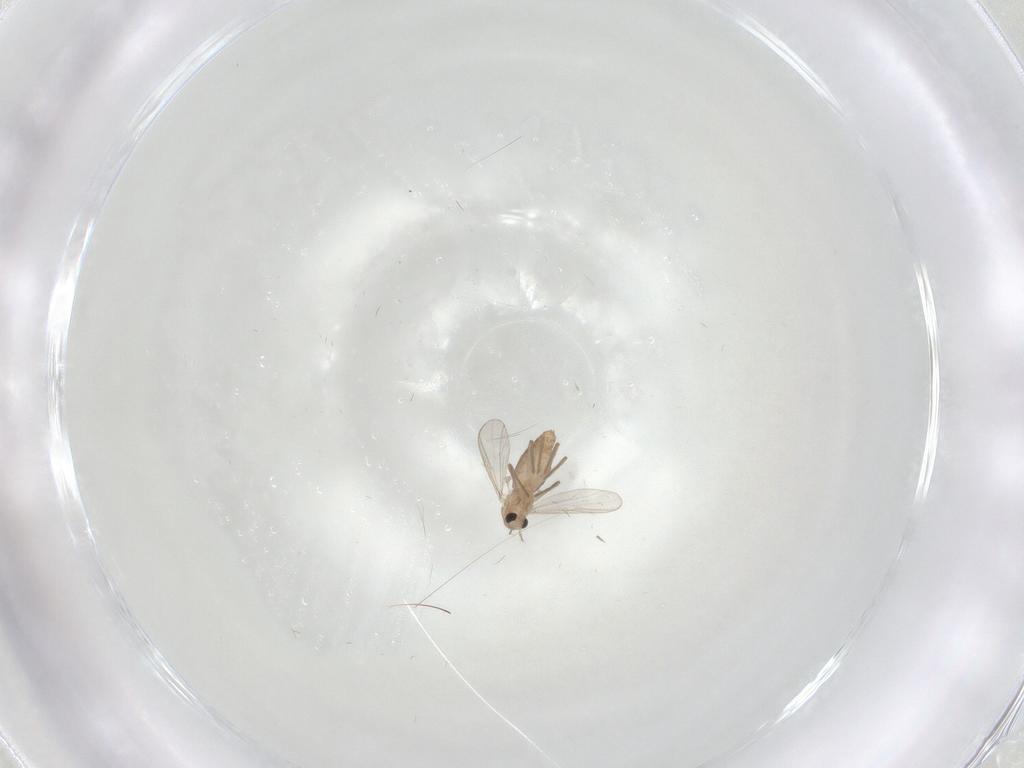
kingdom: Animalia
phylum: Arthropoda
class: Insecta
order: Diptera
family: Chironomidae
